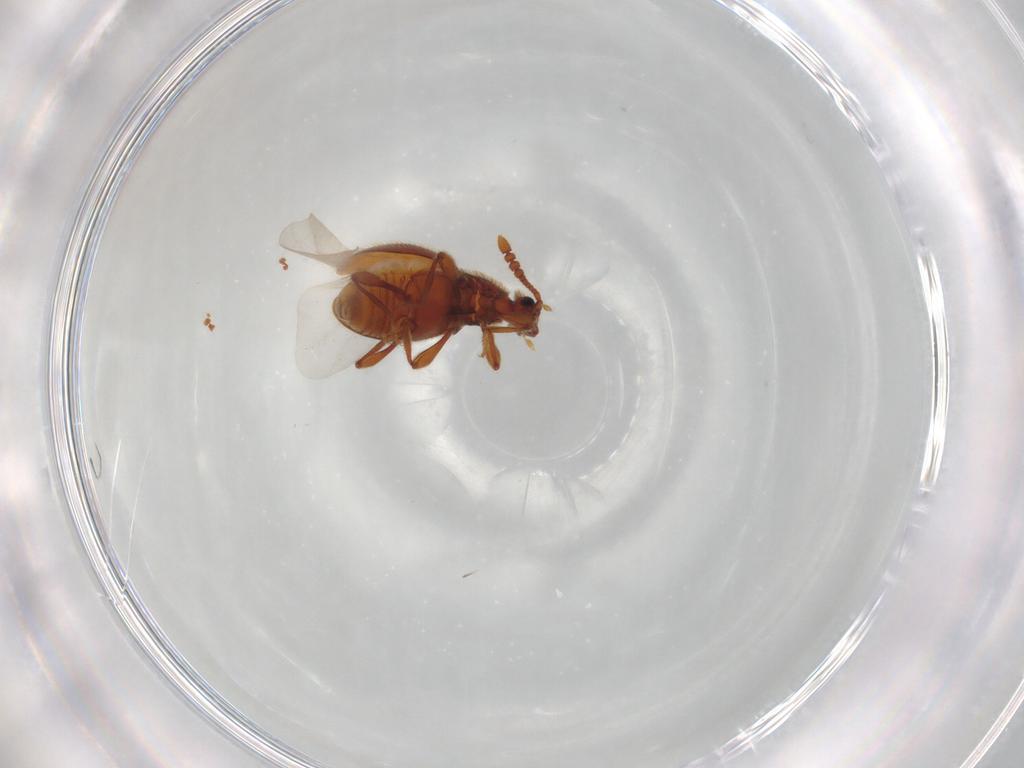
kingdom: Animalia
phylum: Arthropoda
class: Insecta
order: Coleoptera
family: Staphylinidae
